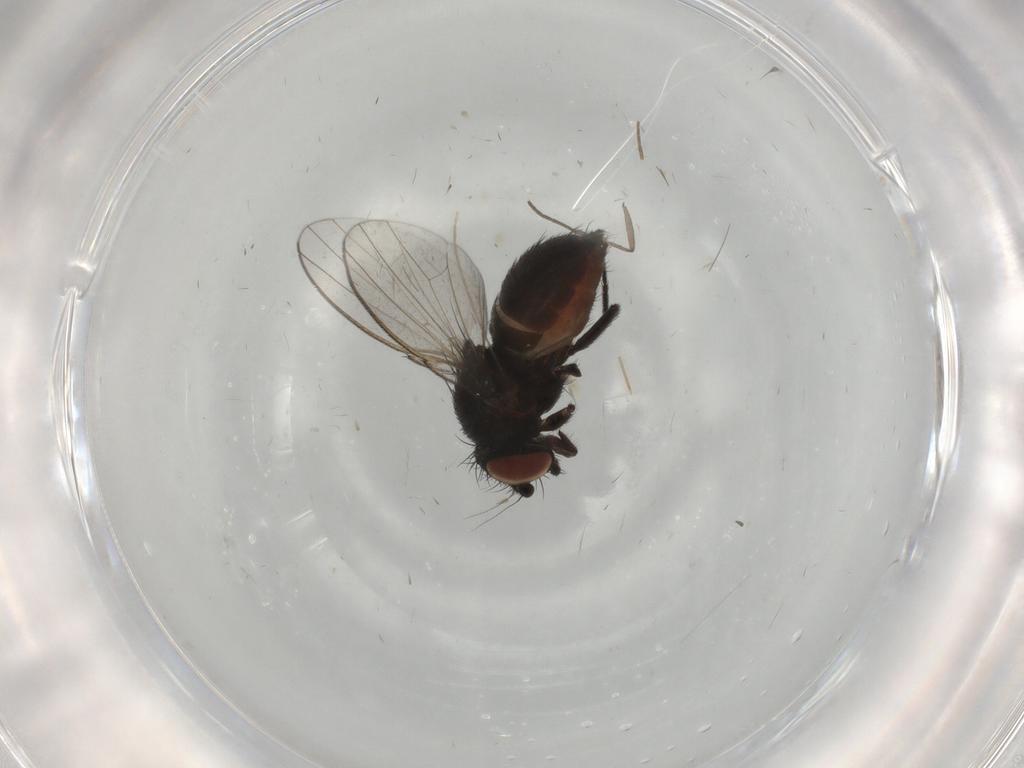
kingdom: Animalia
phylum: Arthropoda
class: Insecta
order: Diptera
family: Milichiidae
